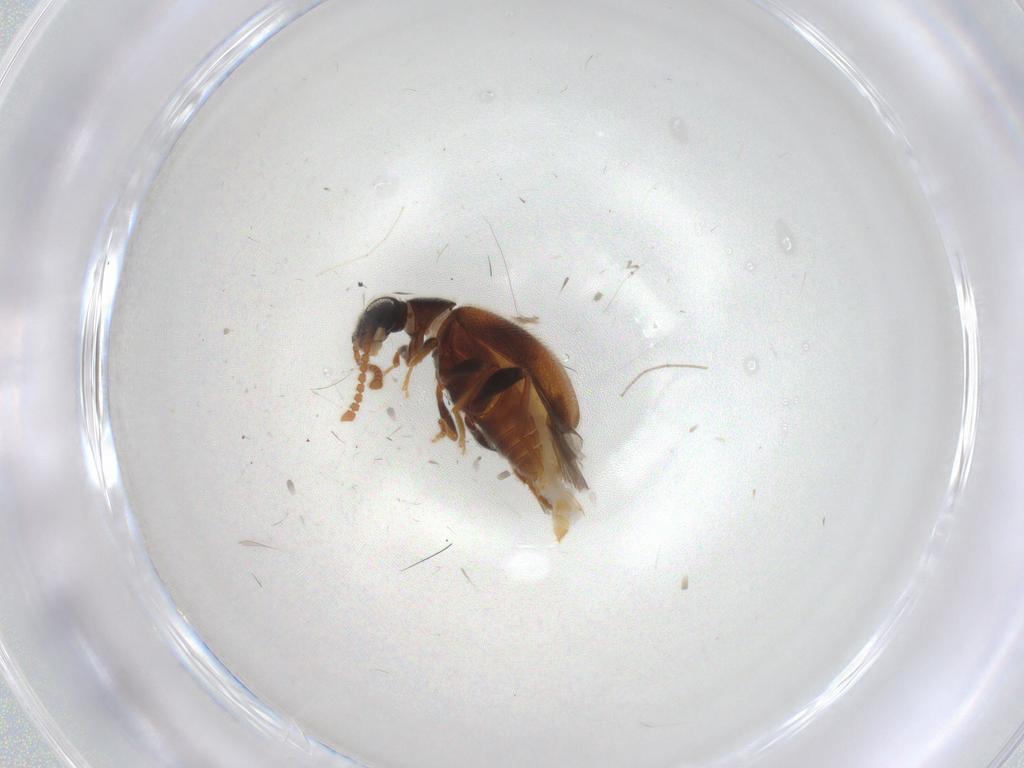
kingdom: Animalia
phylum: Arthropoda
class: Insecta
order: Coleoptera
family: Aderidae
